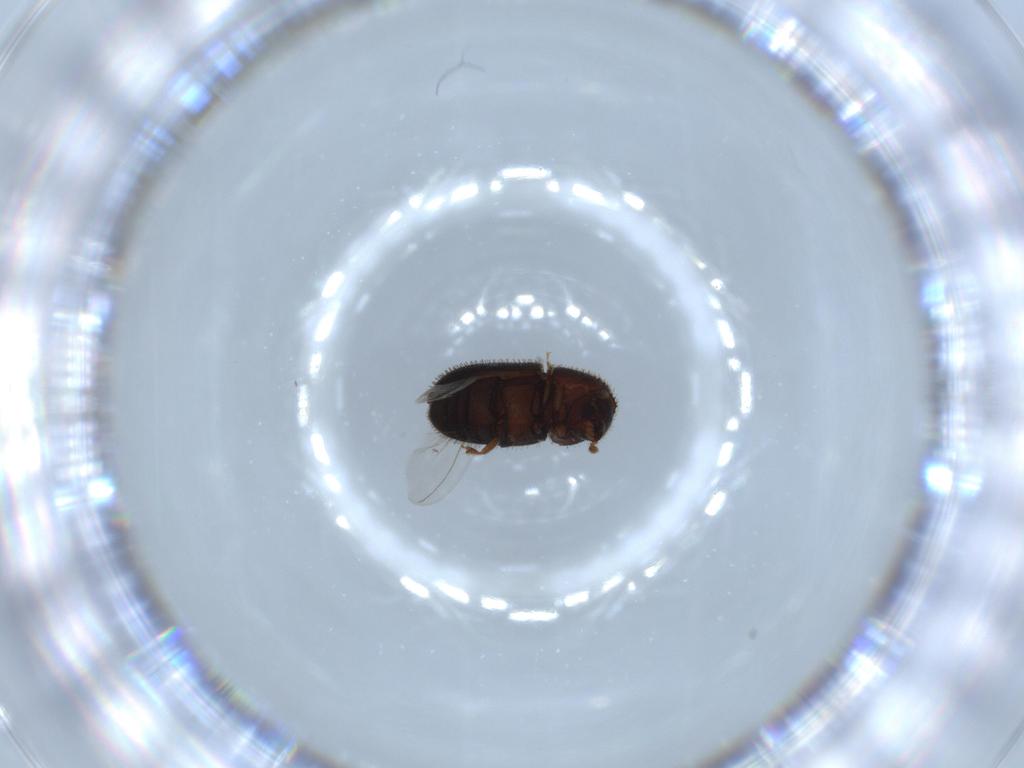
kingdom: Animalia
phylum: Arthropoda
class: Insecta
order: Coleoptera
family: Curculionidae
